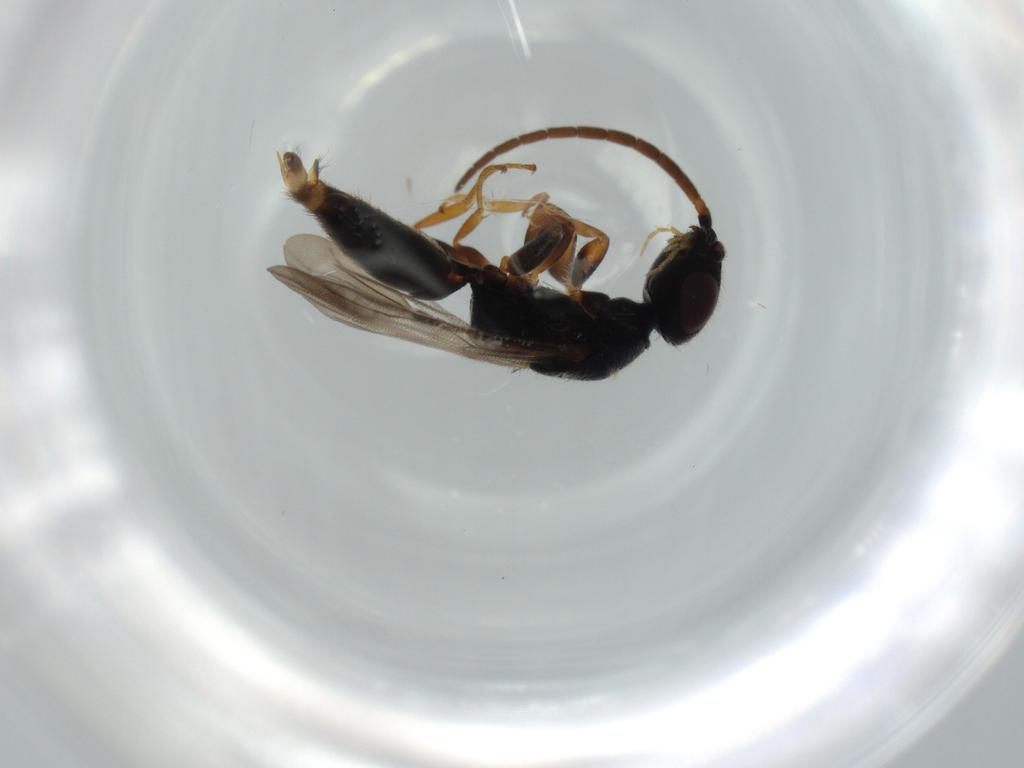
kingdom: Animalia
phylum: Arthropoda
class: Insecta
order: Hymenoptera
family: Bethylidae
